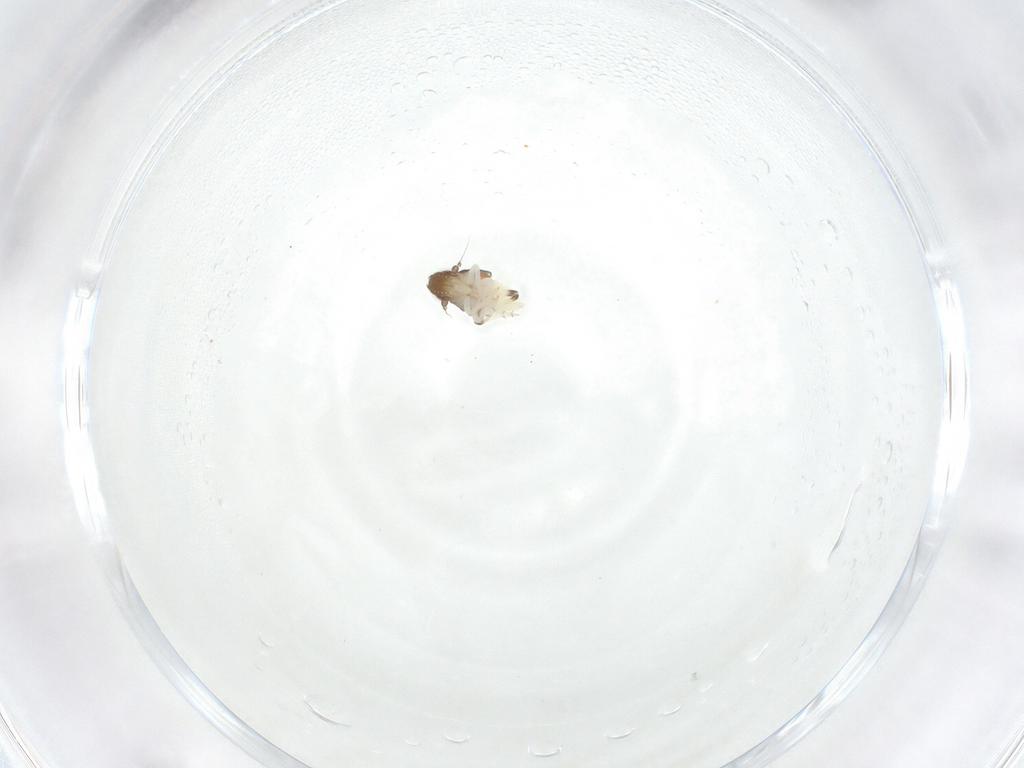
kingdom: Animalia
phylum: Arthropoda
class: Insecta
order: Hemiptera
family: Nogodinidae
